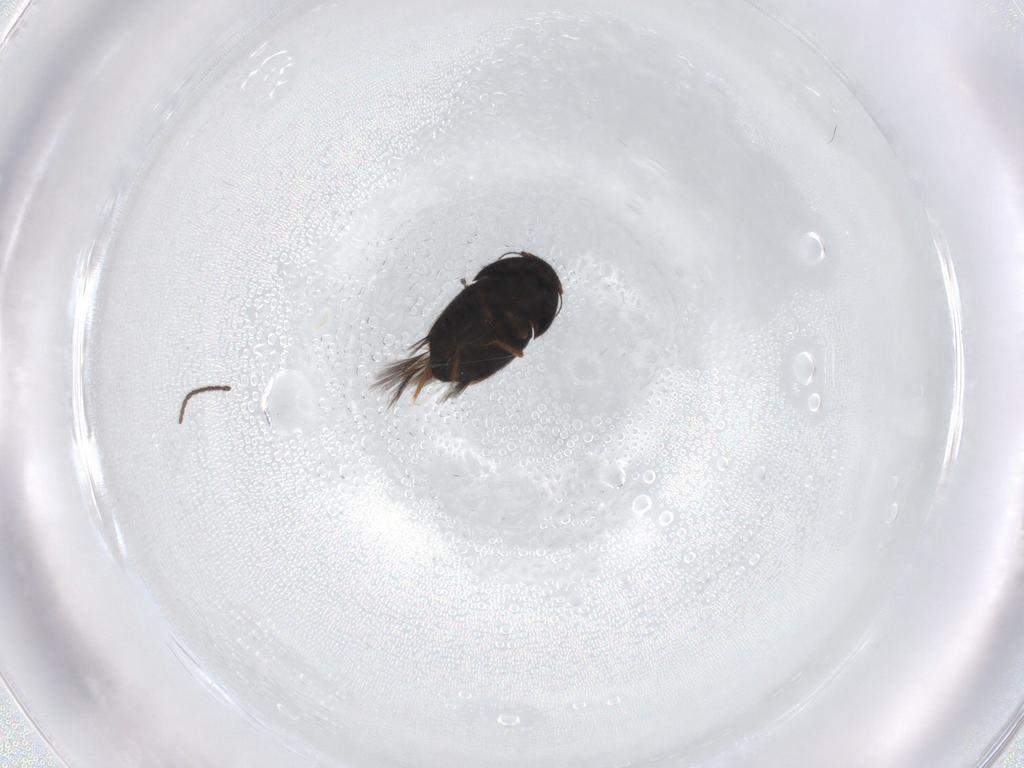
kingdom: Animalia
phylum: Arthropoda
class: Insecta
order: Coleoptera
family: Ptiliidae
